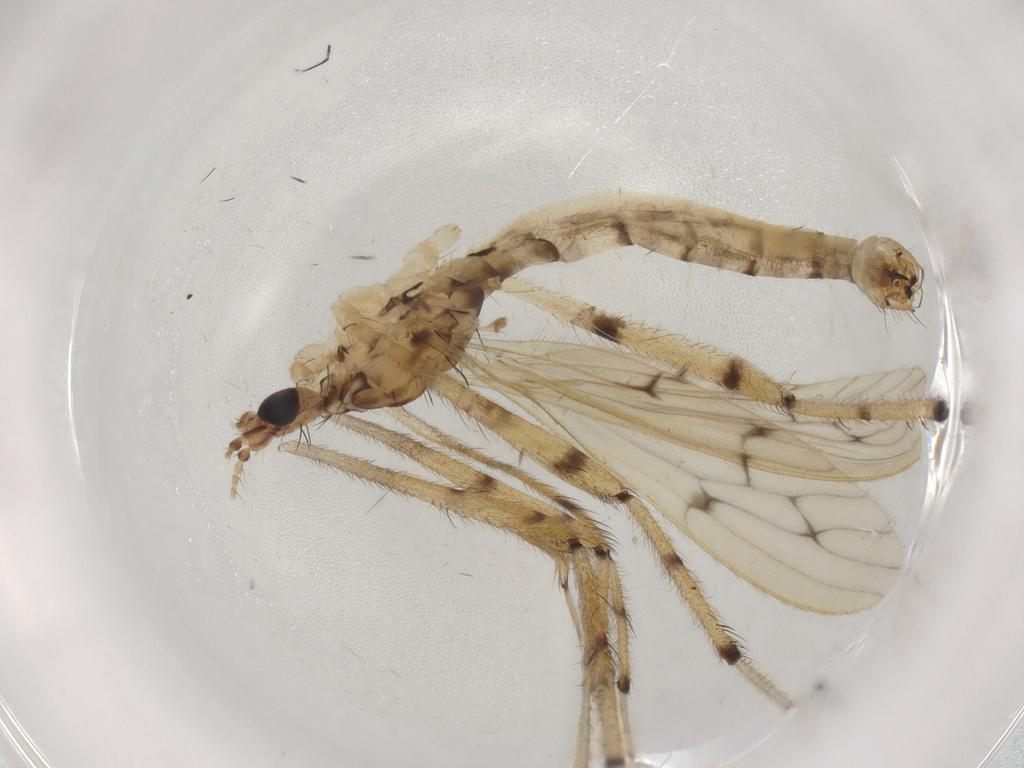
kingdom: Animalia
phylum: Arthropoda
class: Insecta
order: Diptera
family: Limoniidae
